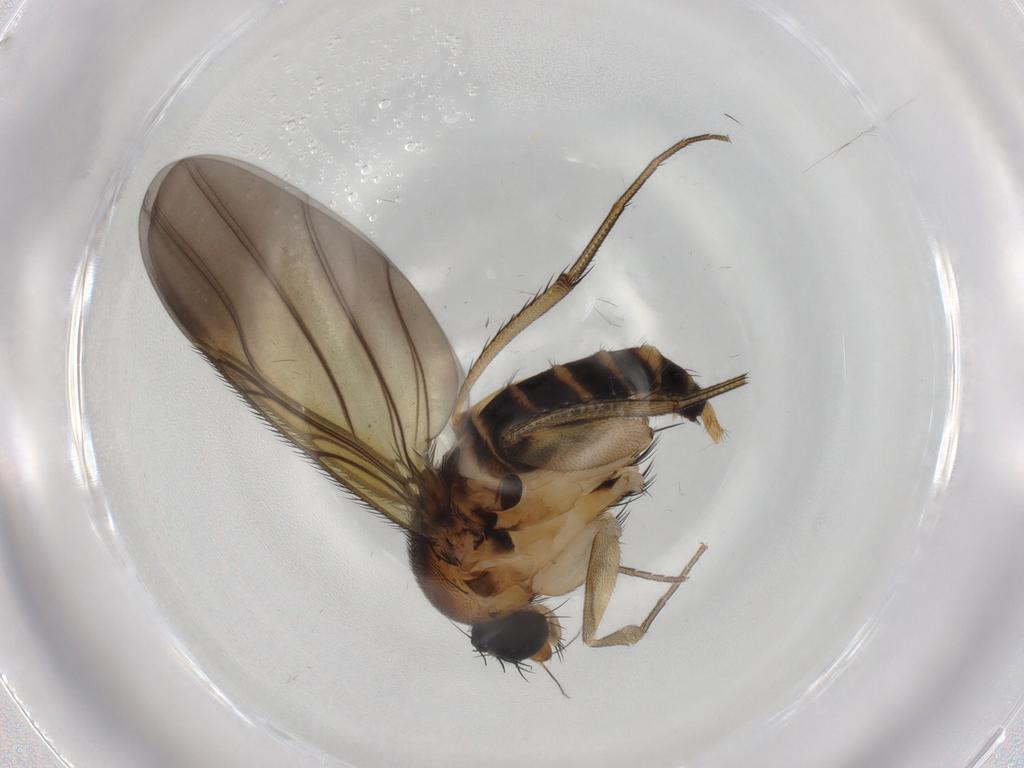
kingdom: Animalia
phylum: Arthropoda
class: Insecta
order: Diptera
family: Phoridae
